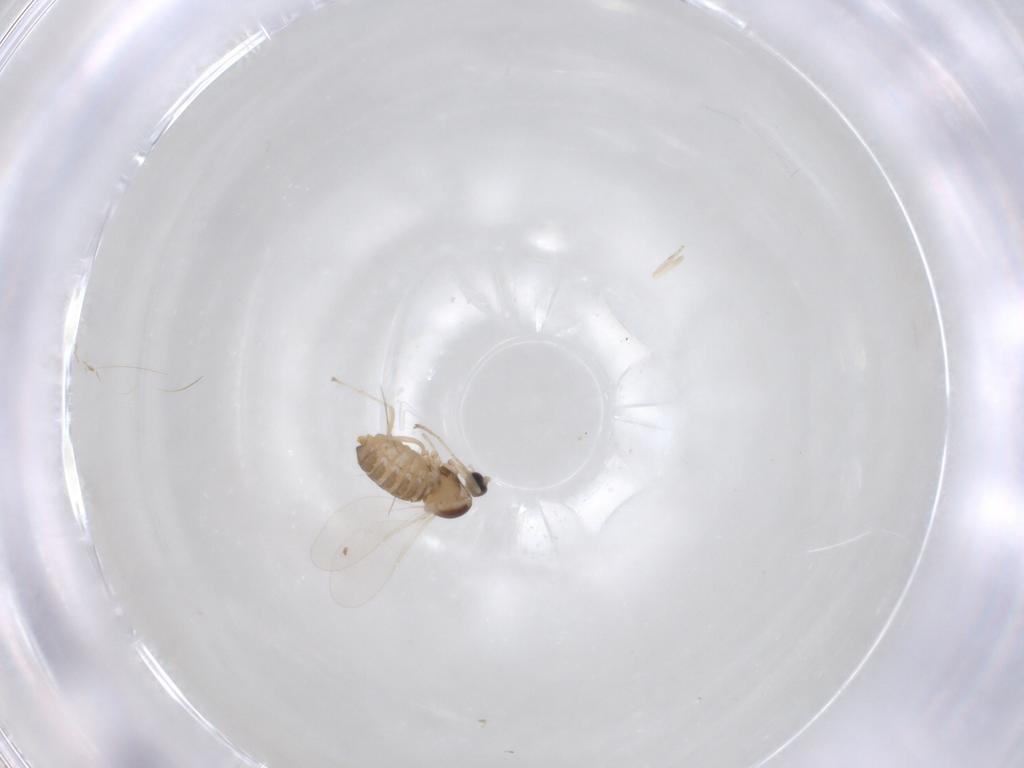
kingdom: Animalia
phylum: Arthropoda
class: Insecta
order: Diptera
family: Cecidomyiidae
